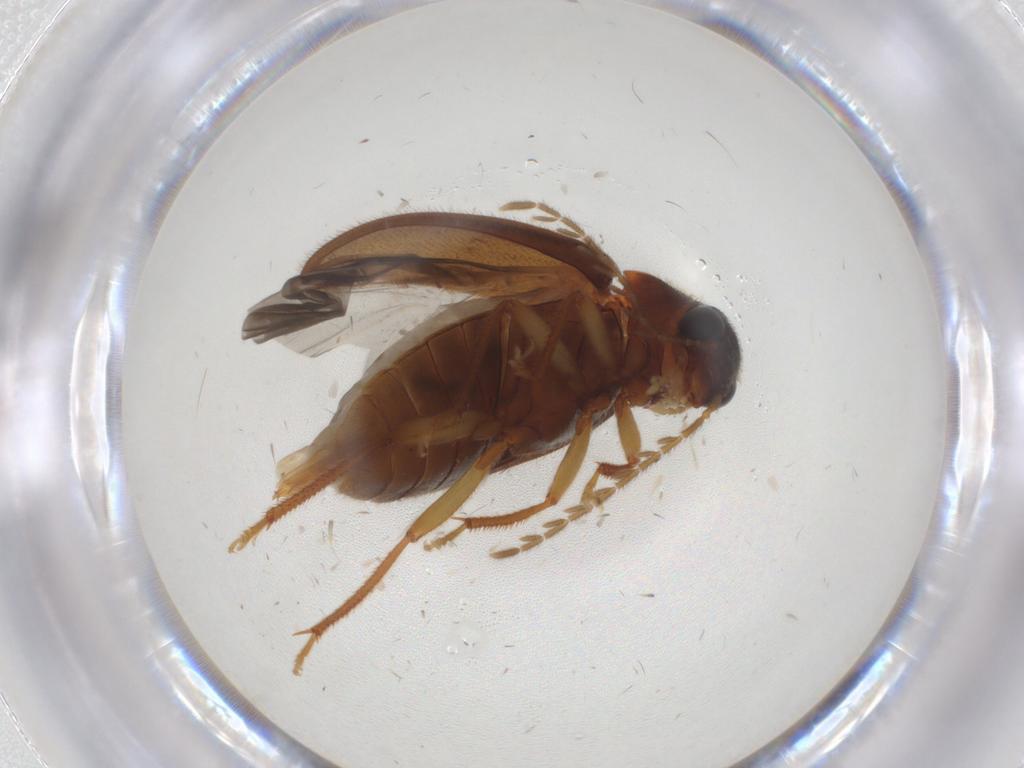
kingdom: Animalia
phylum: Arthropoda
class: Insecta
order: Coleoptera
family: Ptilodactylidae
